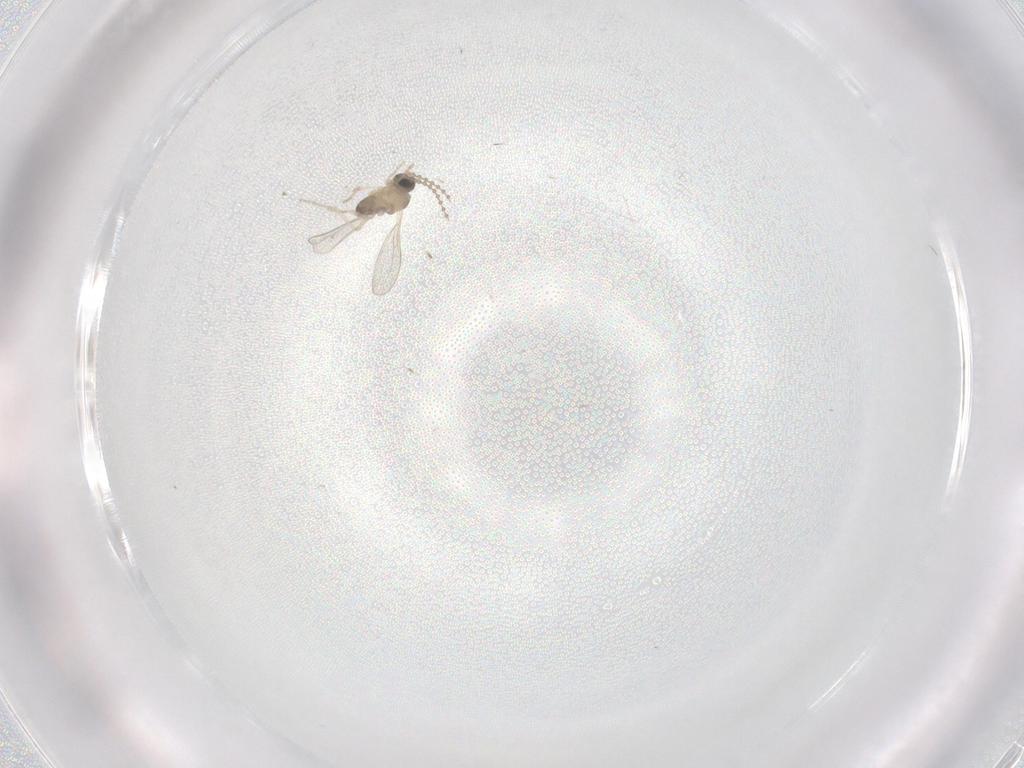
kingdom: Animalia
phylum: Arthropoda
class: Insecta
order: Diptera
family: Cecidomyiidae
